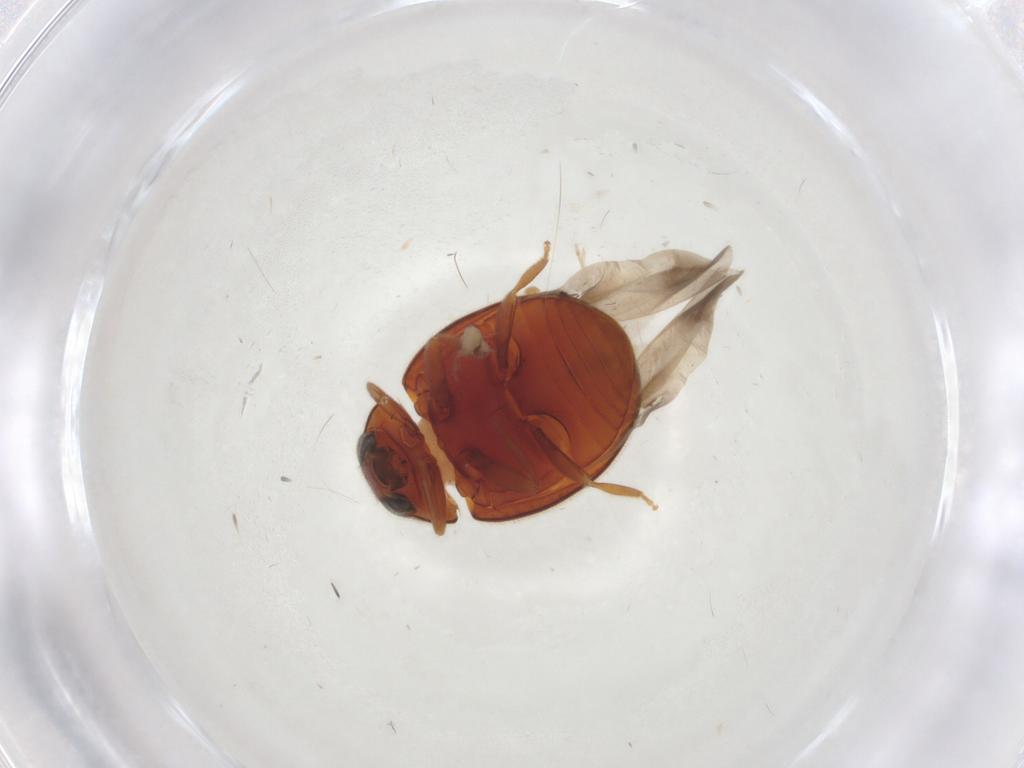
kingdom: Animalia
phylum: Arthropoda
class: Insecta
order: Coleoptera
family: Coccinellidae
